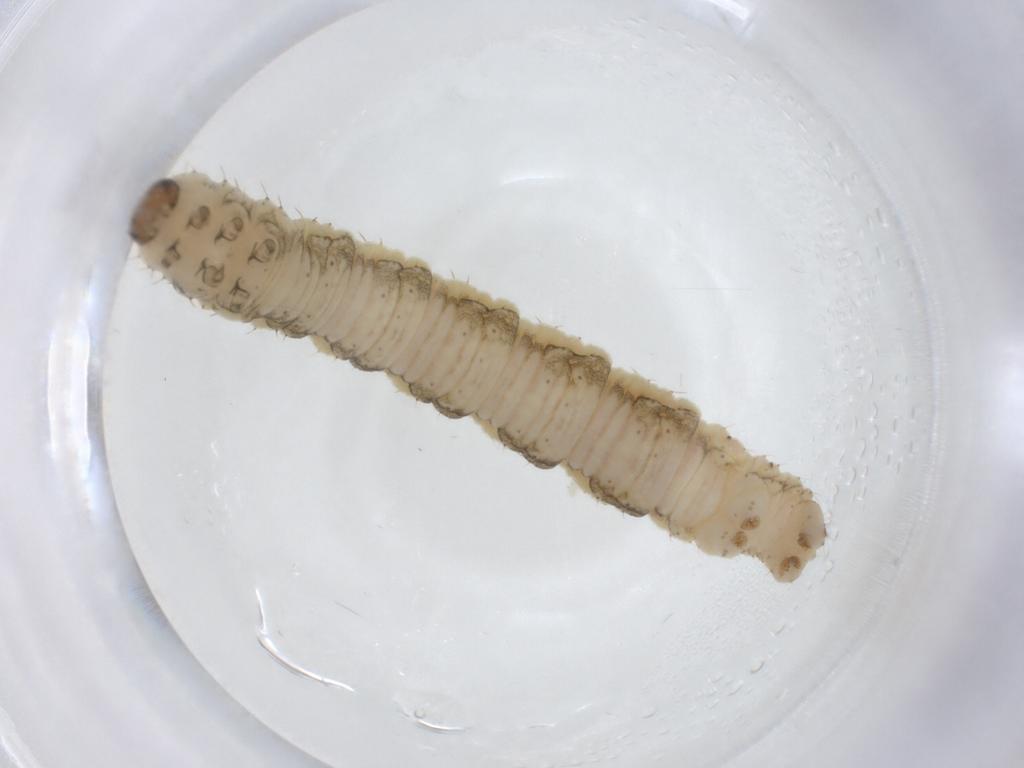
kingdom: Animalia
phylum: Arthropoda
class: Insecta
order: Lepidoptera
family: Geometridae
